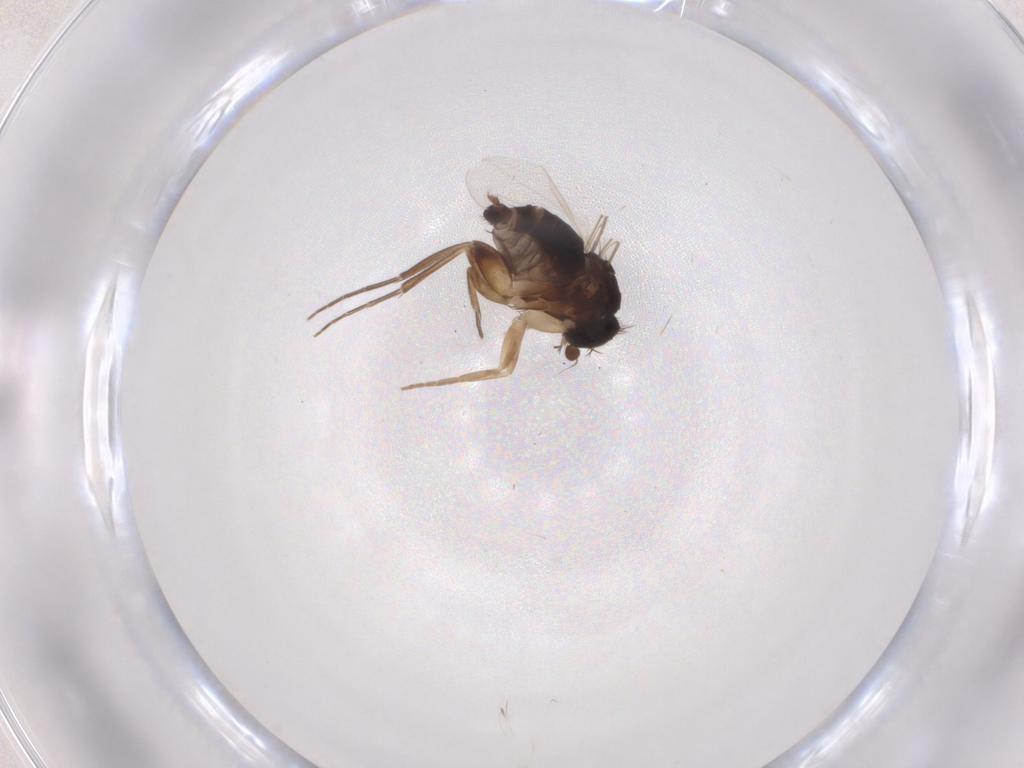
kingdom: Animalia
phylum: Arthropoda
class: Insecta
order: Diptera
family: Phoridae
